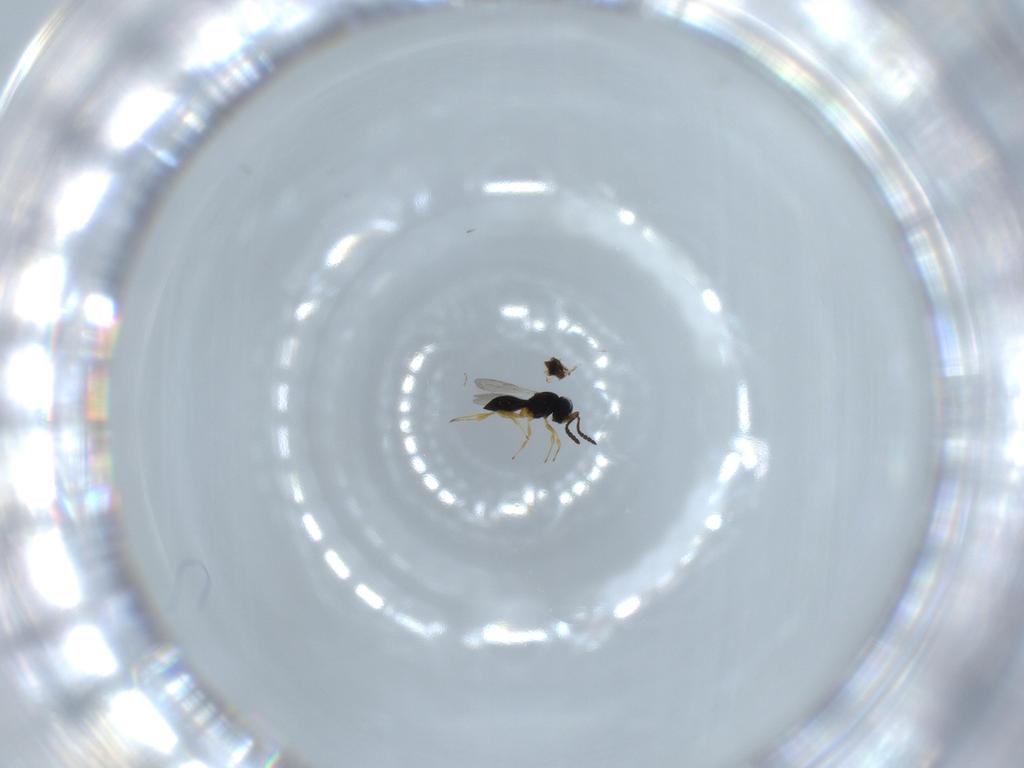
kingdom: Animalia
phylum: Arthropoda
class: Insecta
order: Hymenoptera
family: Scelionidae
